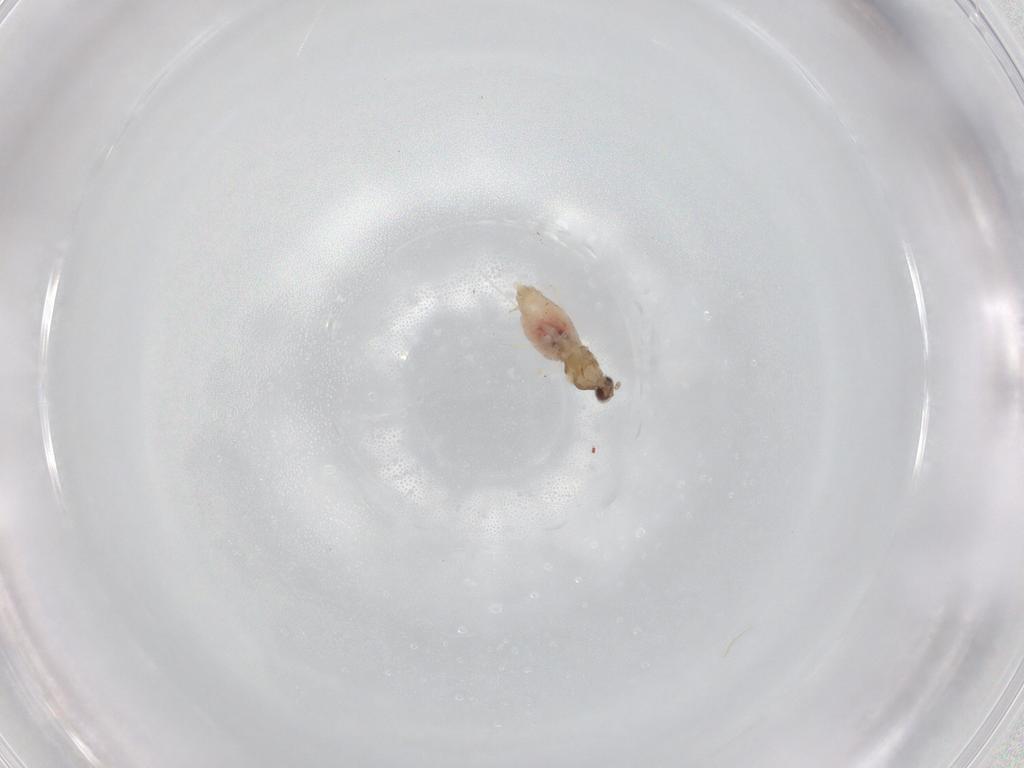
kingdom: Animalia
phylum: Arthropoda
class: Insecta
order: Diptera
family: Cecidomyiidae
